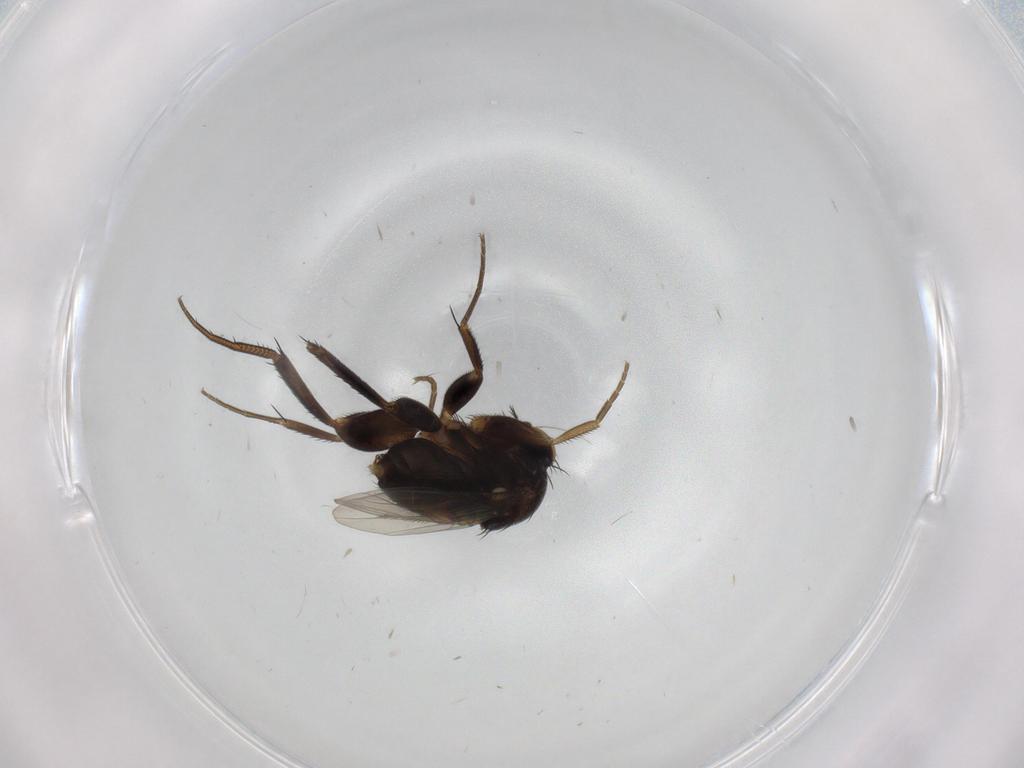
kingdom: Animalia
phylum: Arthropoda
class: Insecta
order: Diptera
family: Phoridae
